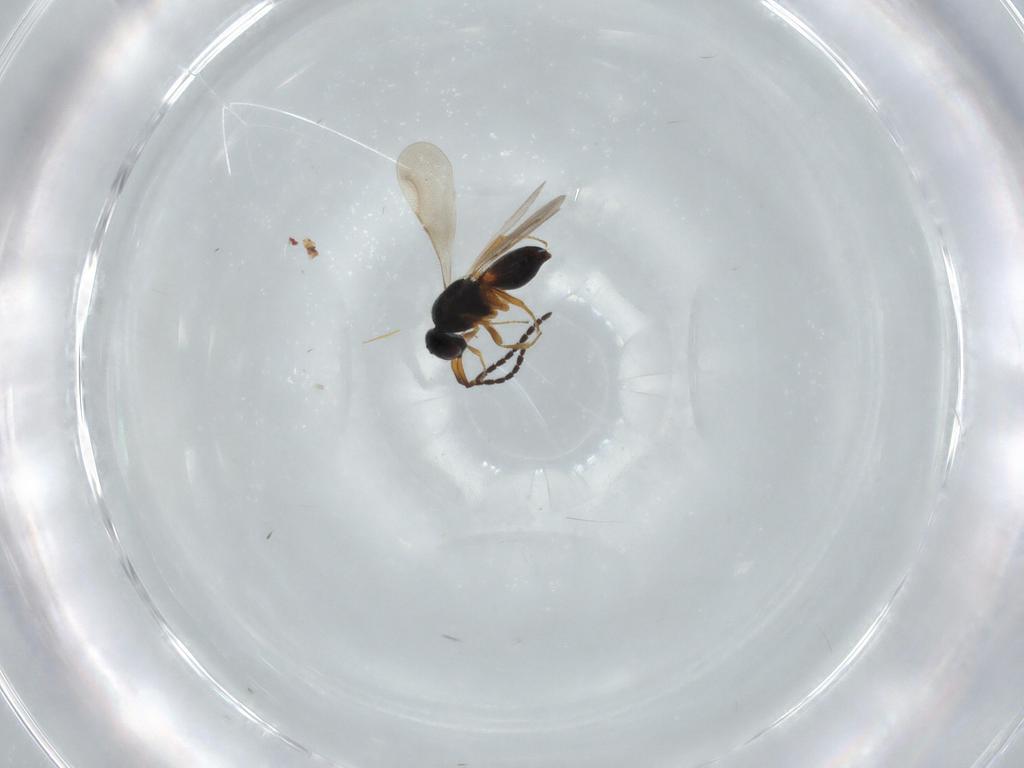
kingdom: Animalia
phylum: Arthropoda
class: Insecta
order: Hymenoptera
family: Ceraphronidae
